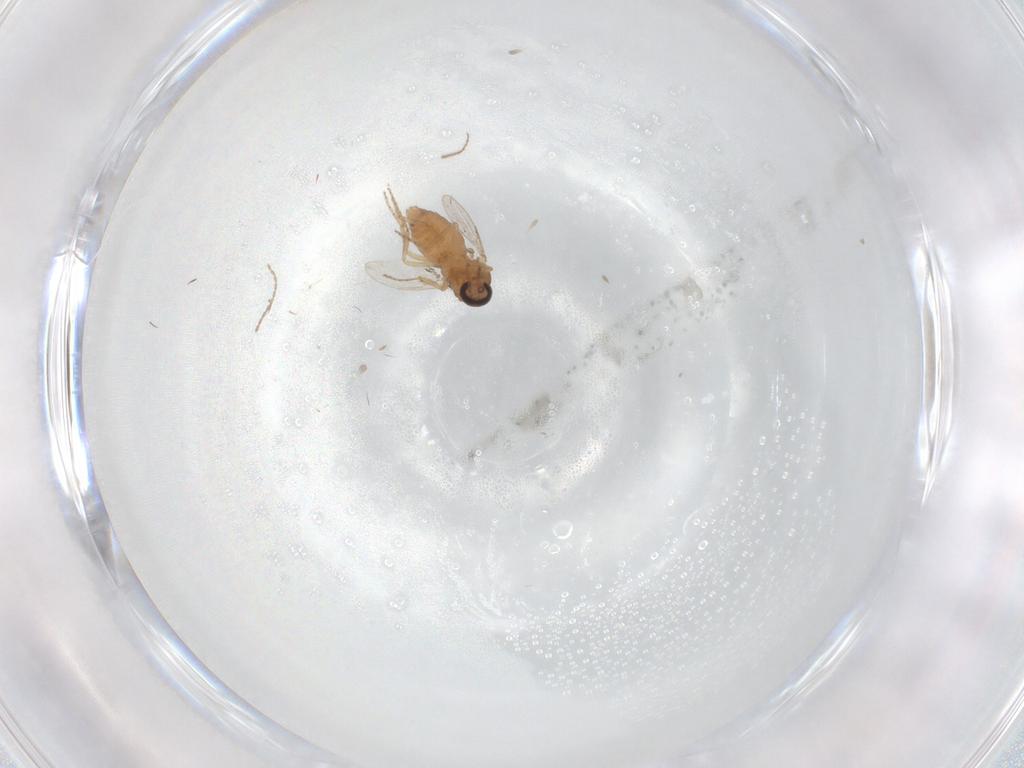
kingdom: Animalia
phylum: Arthropoda
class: Insecta
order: Diptera
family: Ceratopogonidae
